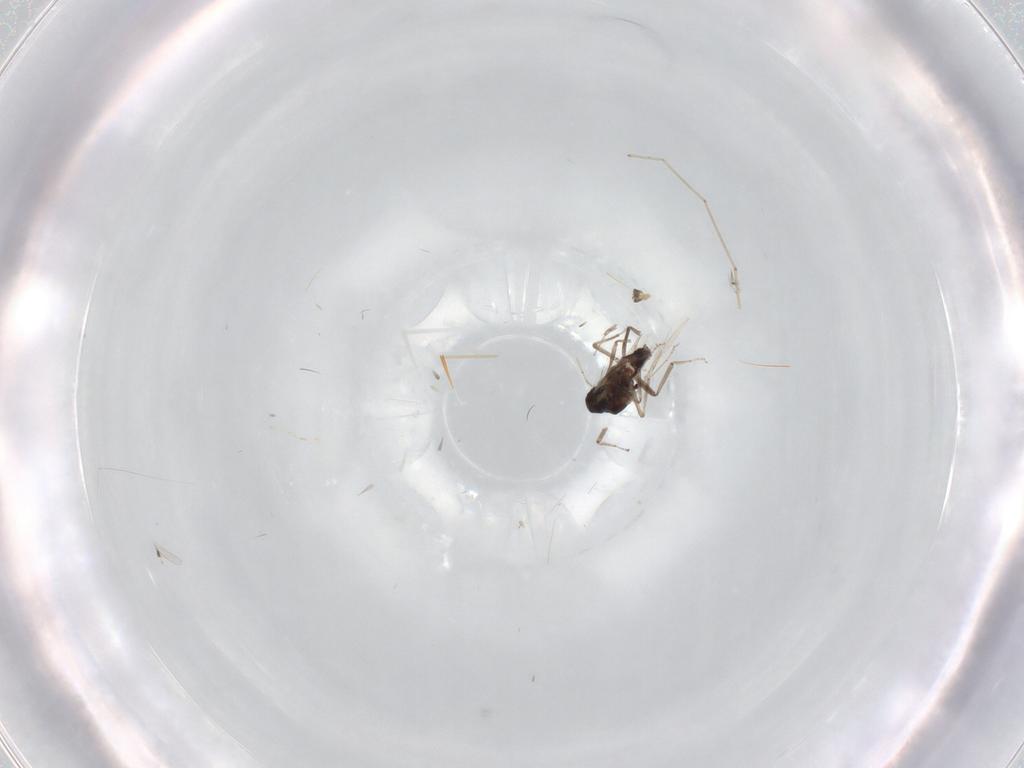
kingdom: Animalia
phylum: Arthropoda
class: Insecta
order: Diptera
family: Ceratopogonidae
